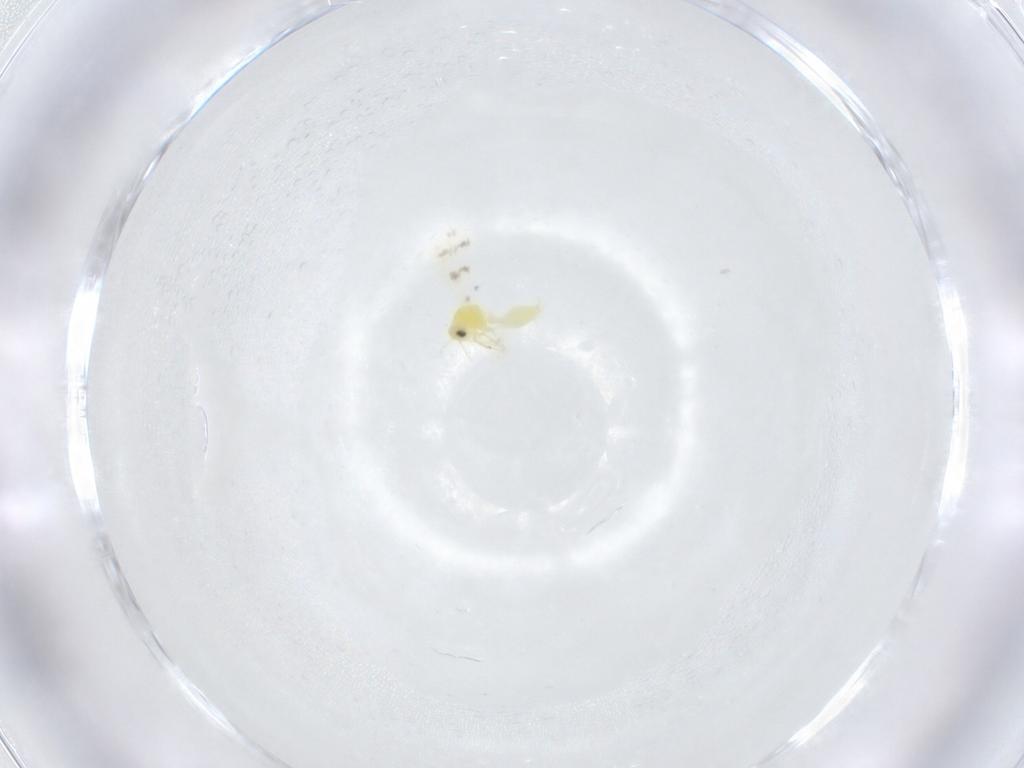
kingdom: Animalia
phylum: Arthropoda
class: Insecta
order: Hemiptera
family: Aleyrodidae
